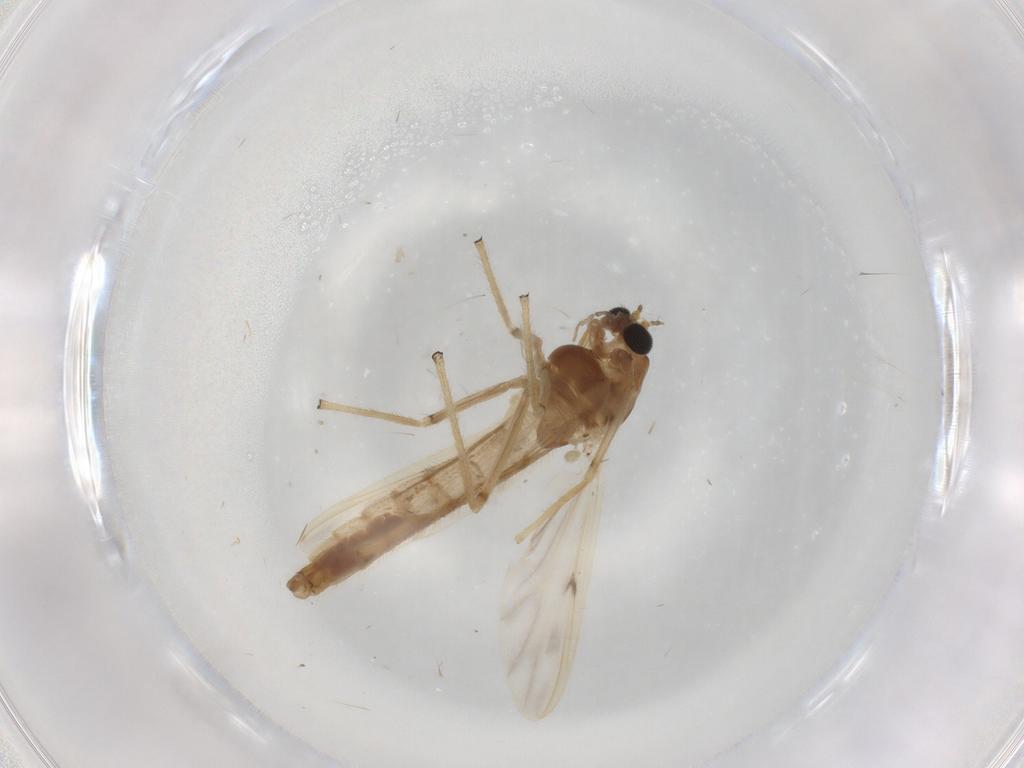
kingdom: Animalia
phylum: Arthropoda
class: Insecta
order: Diptera
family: Chironomidae
